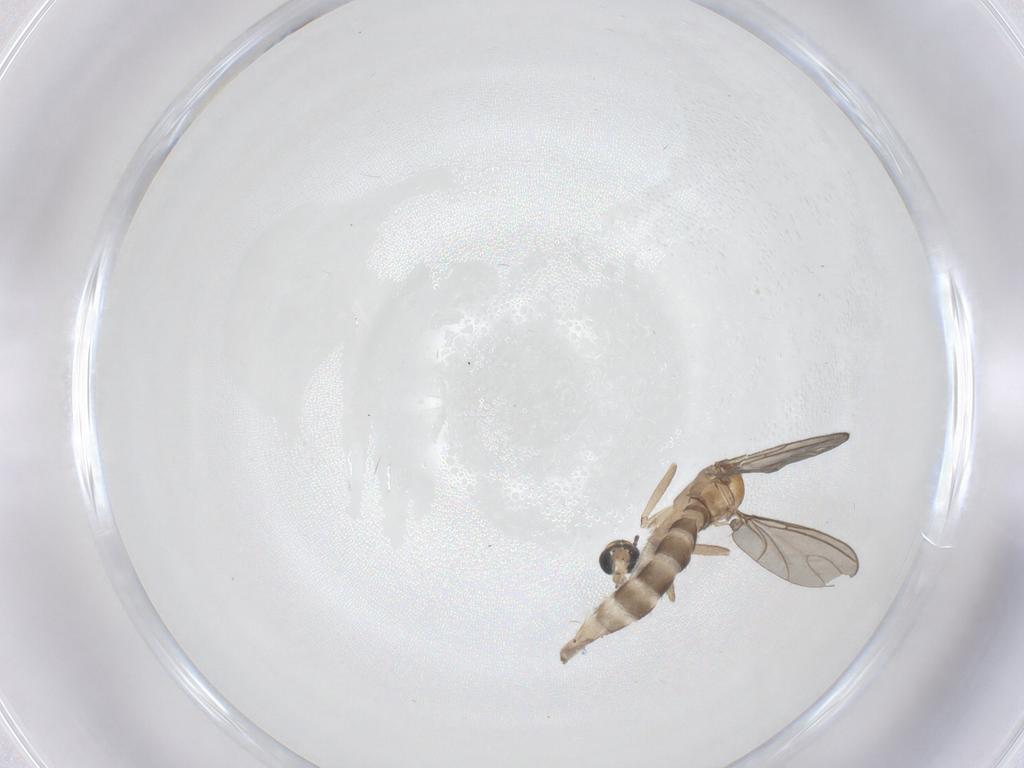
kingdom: Animalia
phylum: Arthropoda
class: Insecta
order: Diptera
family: Sciaridae
